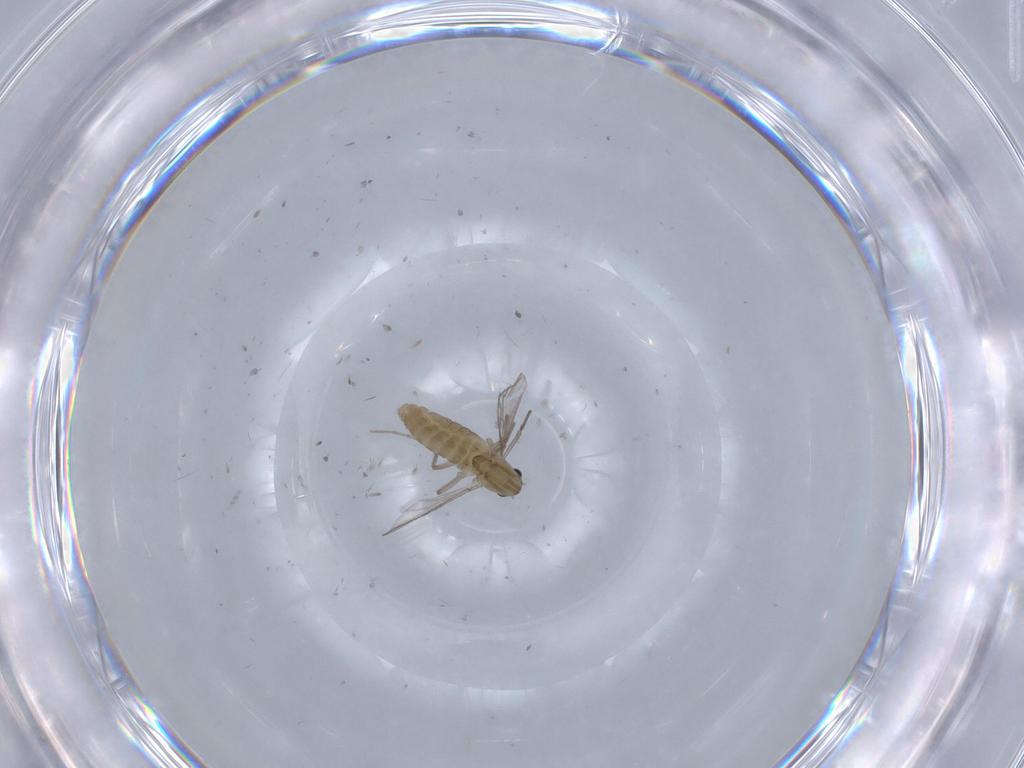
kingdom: Animalia
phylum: Arthropoda
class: Insecta
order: Diptera
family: Chironomidae
